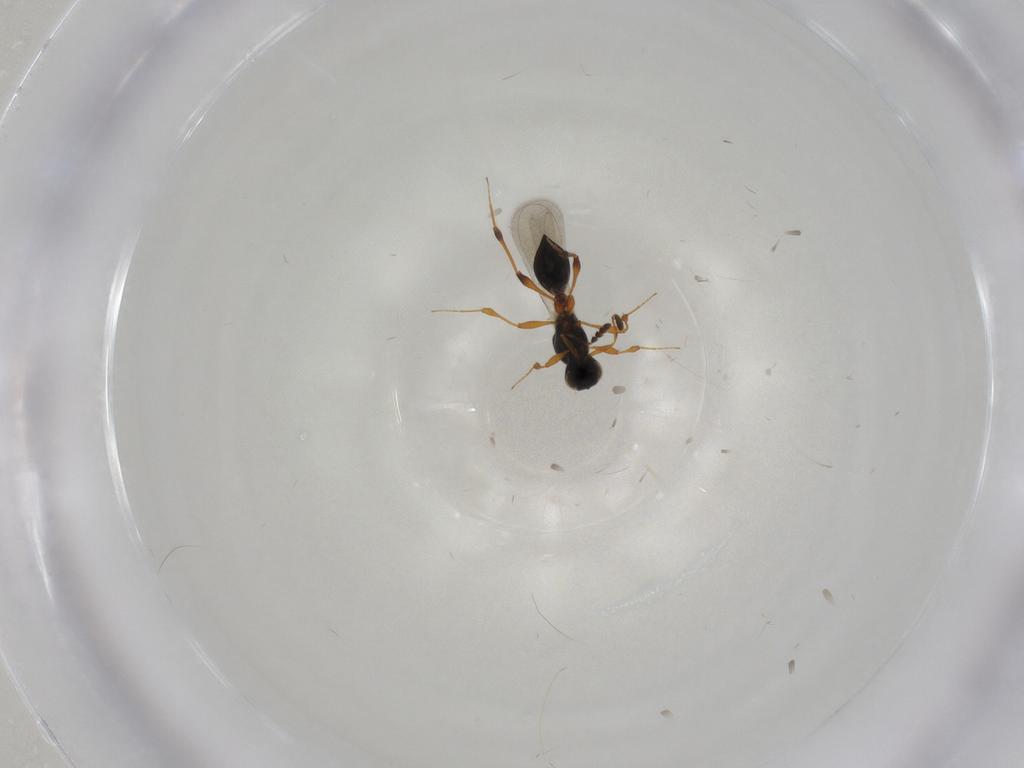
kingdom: Animalia
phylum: Arthropoda
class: Insecta
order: Hymenoptera
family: Platygastridae
